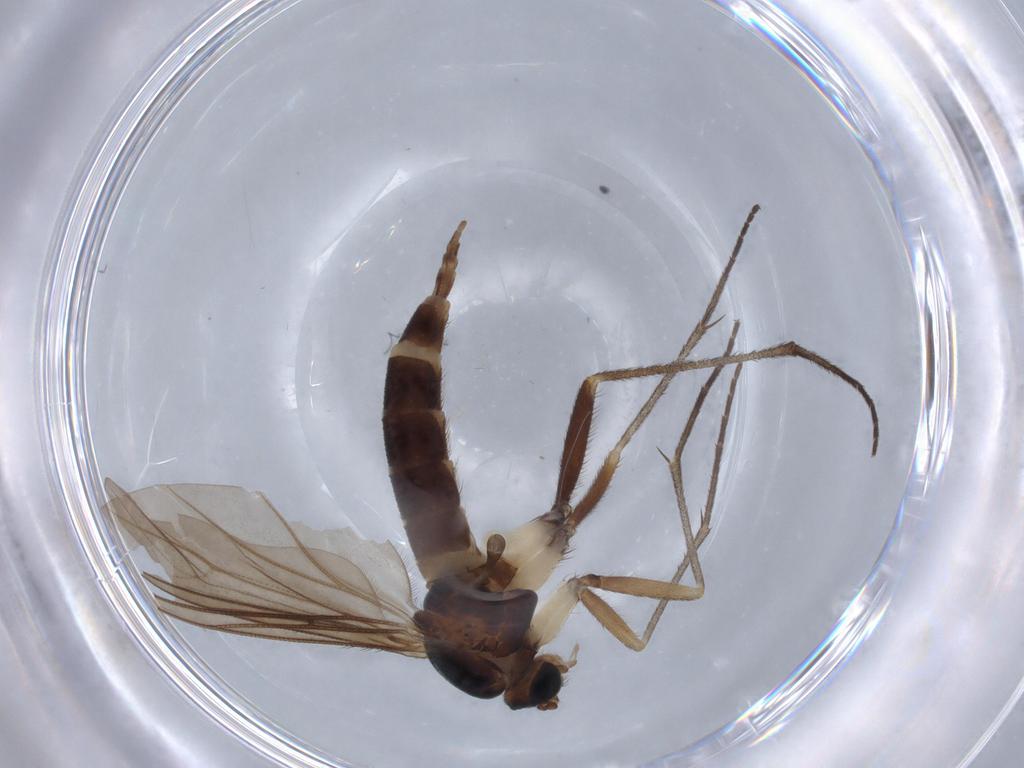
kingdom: Animalia
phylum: Arthropoda
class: Insecta
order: Diptera
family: Sciaridae
